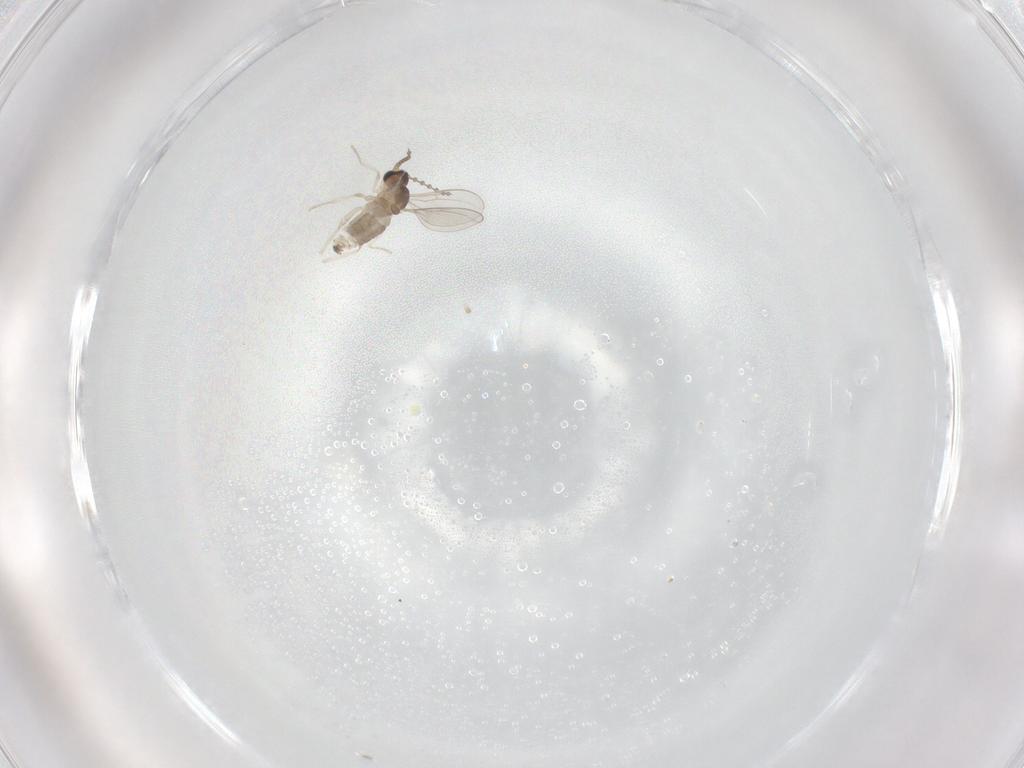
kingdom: Animalia
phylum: Arthropoda
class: Insecta
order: Diptera
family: Cecidomyiidae
